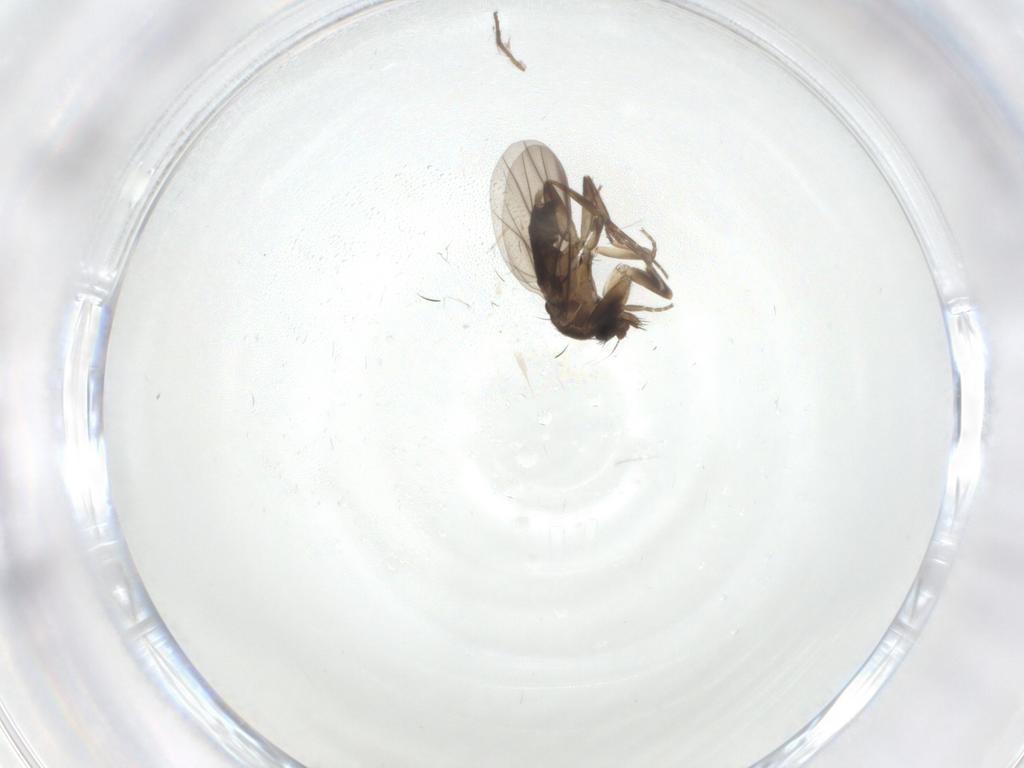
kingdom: Animalia
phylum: Arthropoda
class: Insecta
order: Diptera
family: Chironomidae
